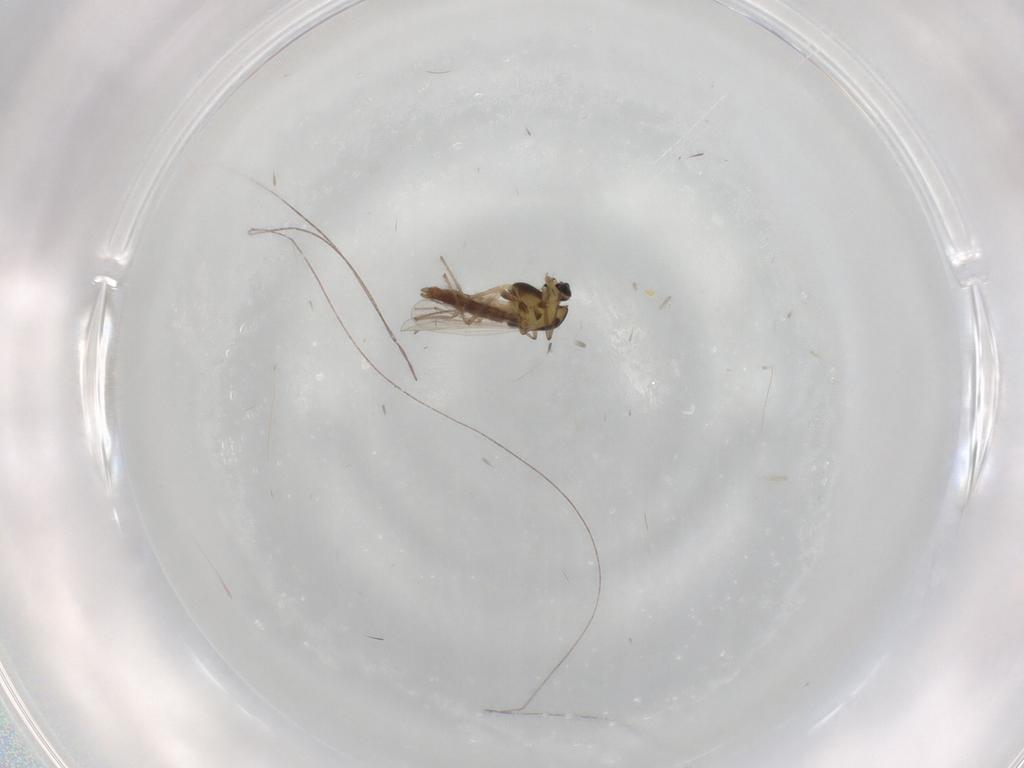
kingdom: Animalia
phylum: Arthropoda
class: Insecta
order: Diptera
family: Chironomidae
